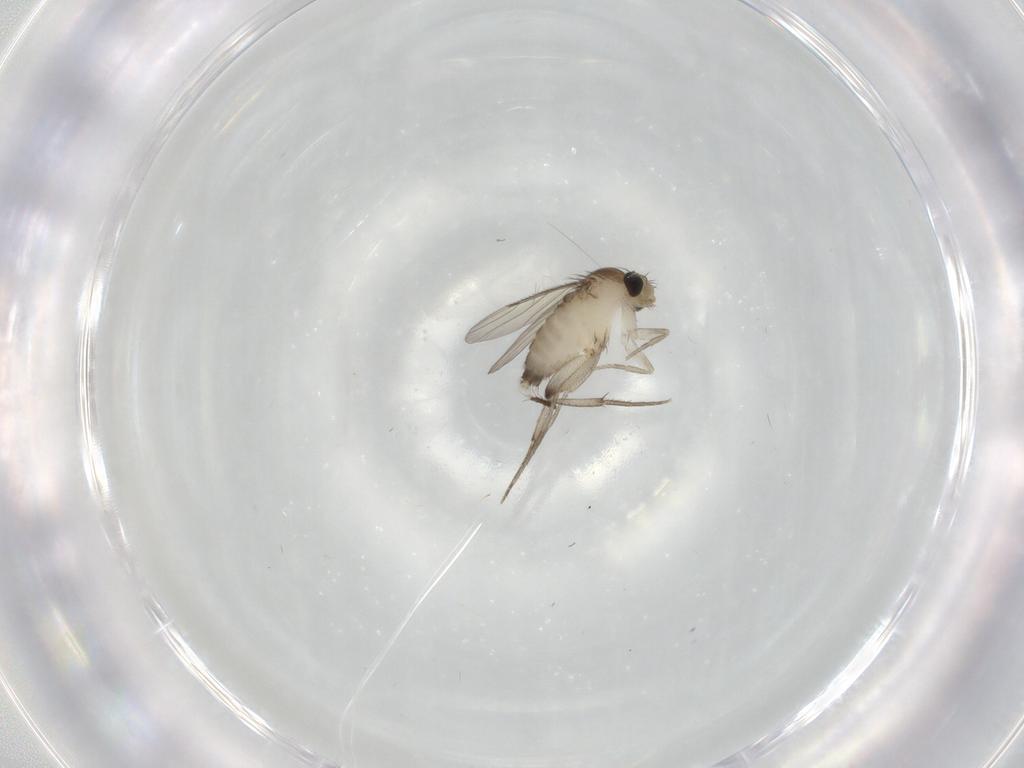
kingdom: Animalia
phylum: Arthropoda
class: Insecta
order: Diptera
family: Phoridae
